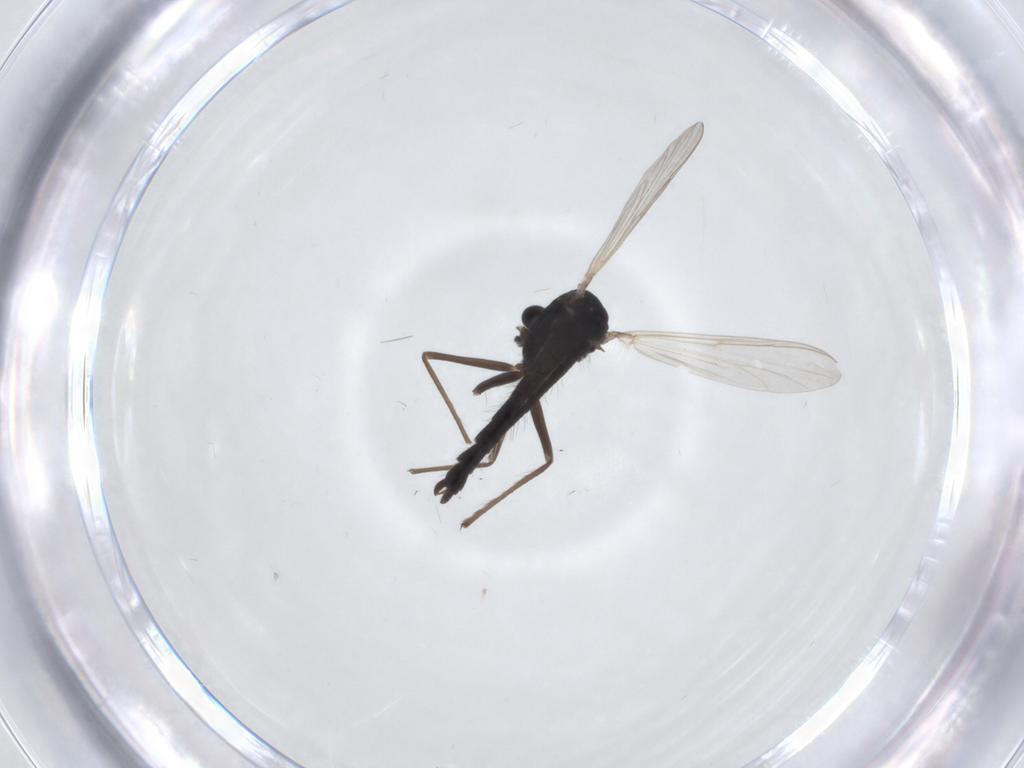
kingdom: Animalia
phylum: Arthropoda
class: Insecta
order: Diptera
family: Chironomidae
